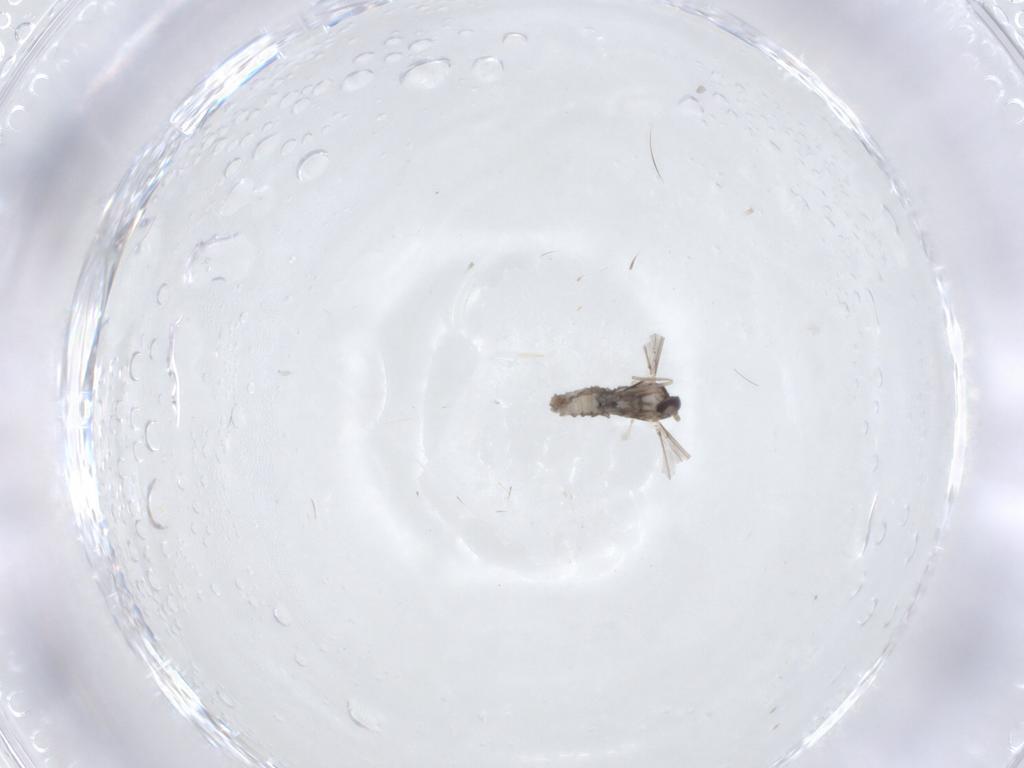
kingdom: Animalia
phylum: Arthropoda
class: Insecta
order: Diptera
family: Cecidomyiidae
